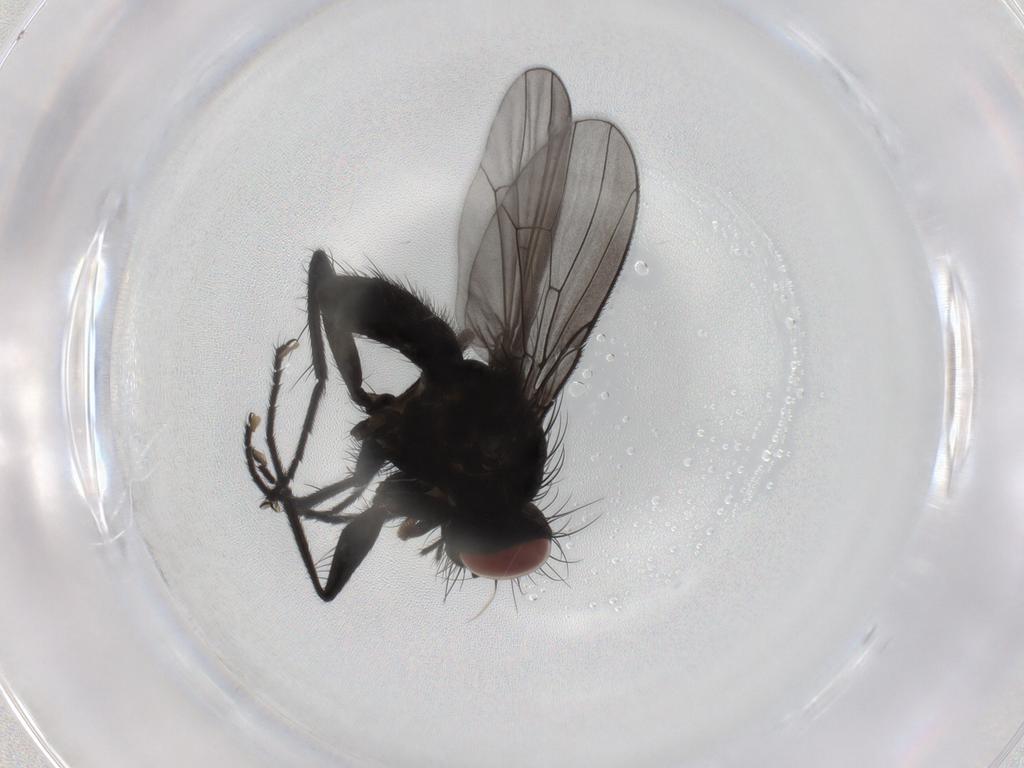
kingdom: Animalia
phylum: Arthropoda
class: Insecta
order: Diptera
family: Muscidae
